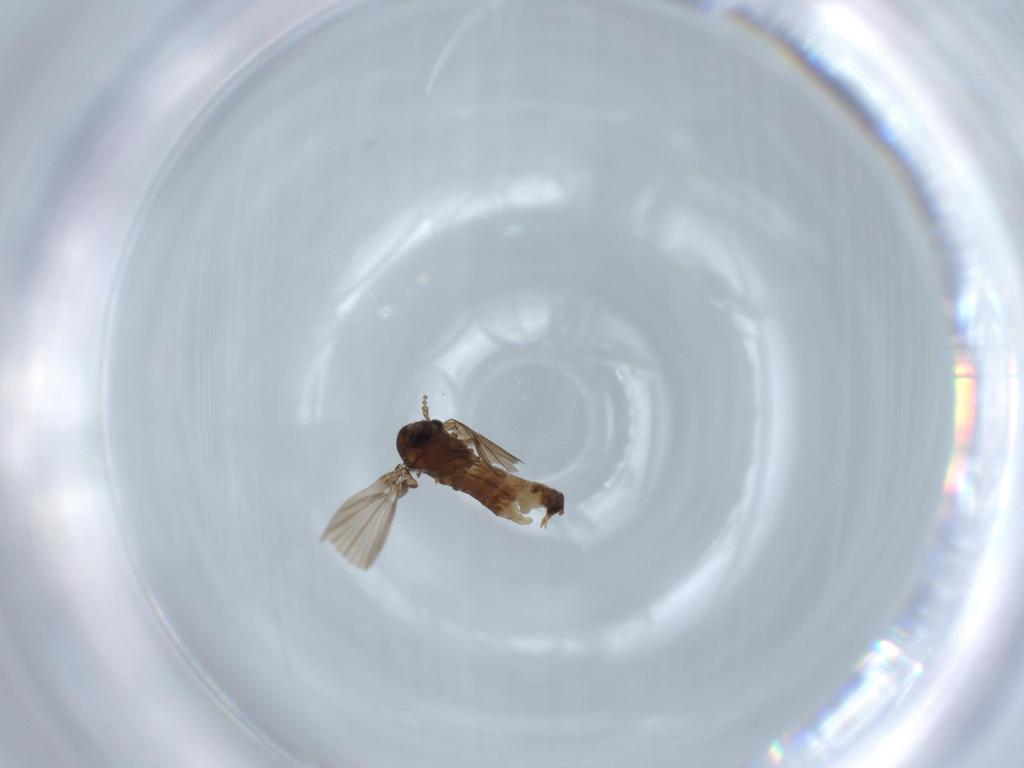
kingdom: Animalia
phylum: Arthropoda
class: Insecta
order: Diptera
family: Psychodidae
